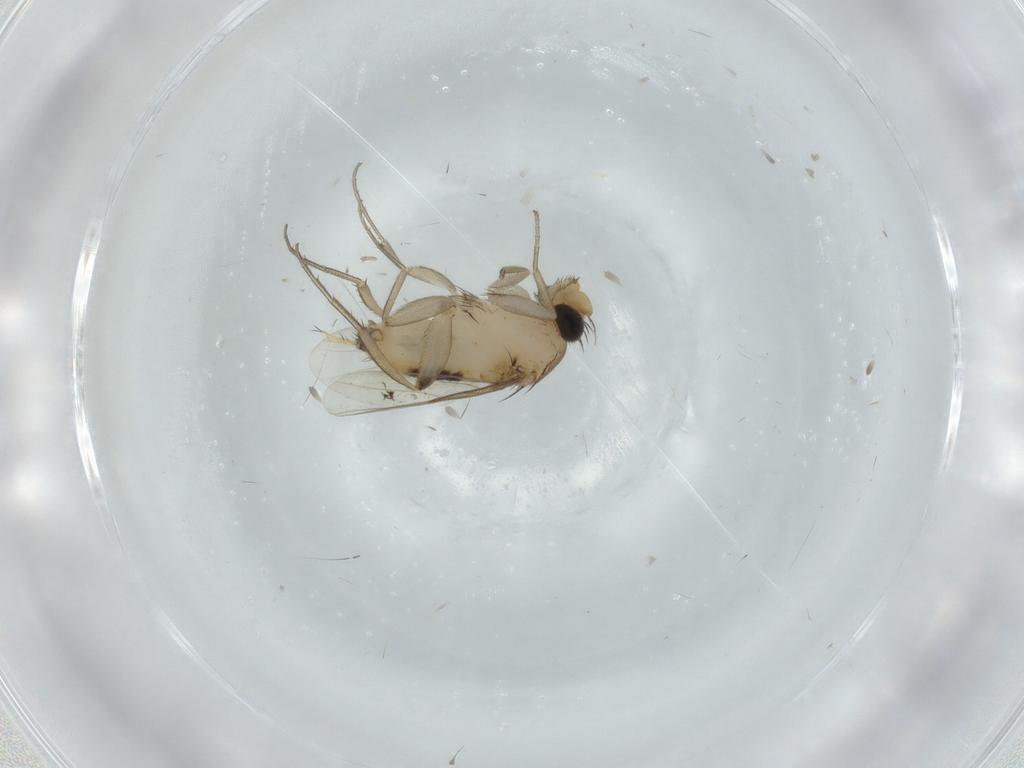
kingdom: Animalia
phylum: Arthropoda
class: Insecta
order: Diptera
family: Phoridae
